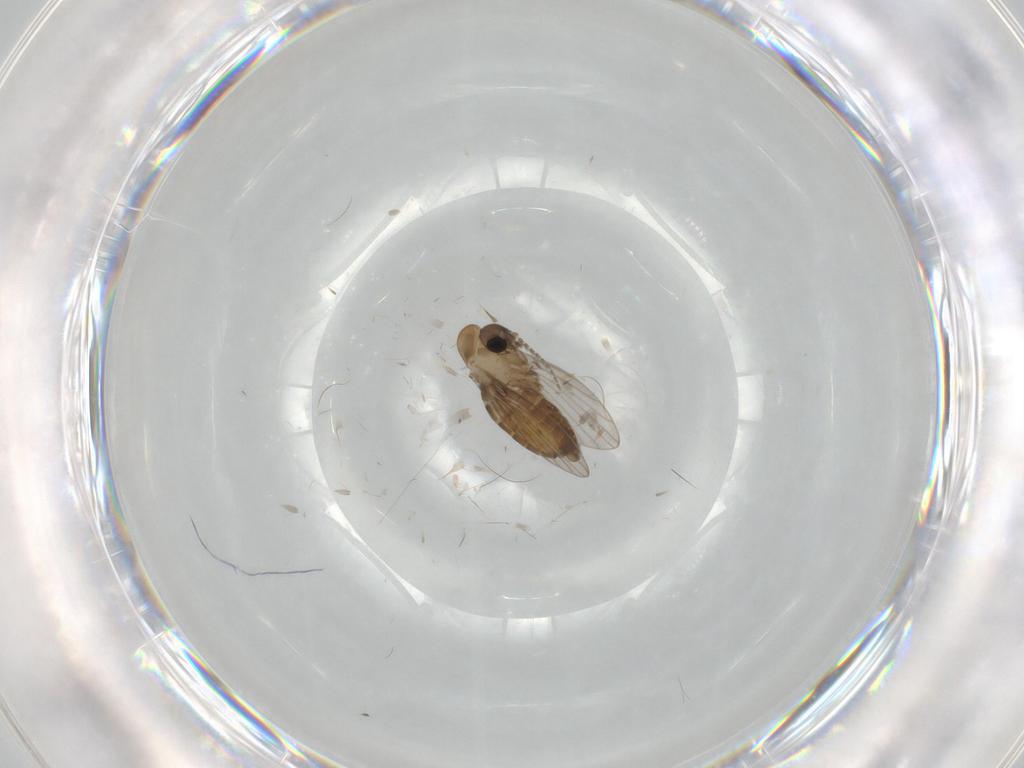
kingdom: Animalia
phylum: Arthropoda
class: Insecta
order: Diptera
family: Psychodidae
